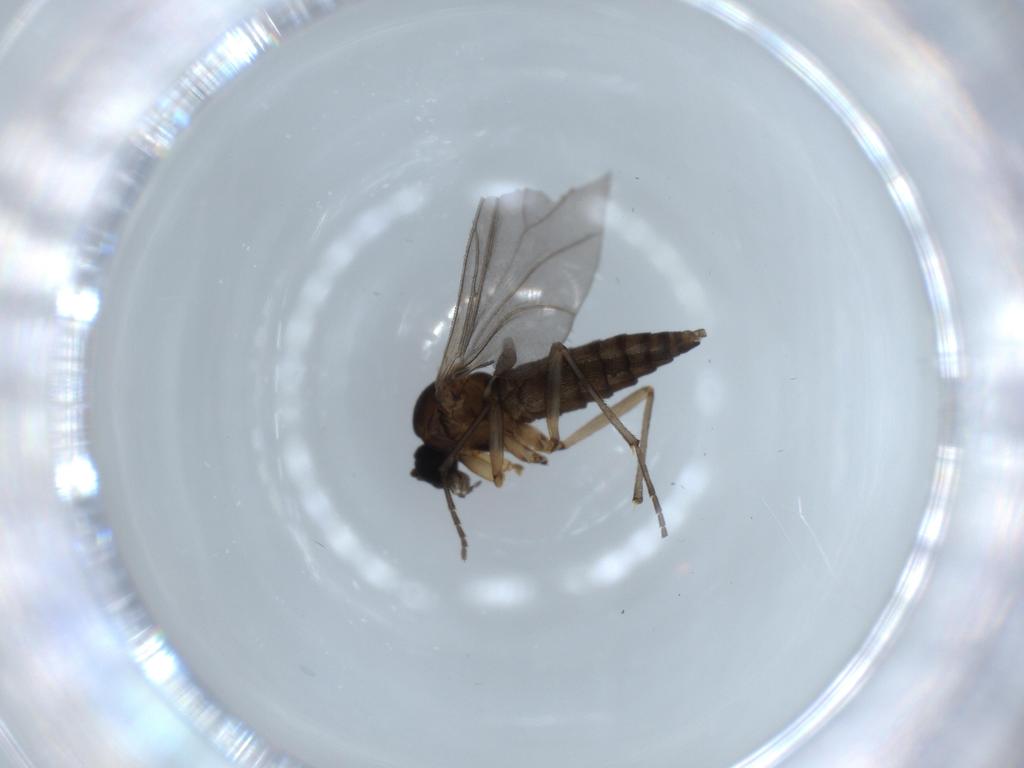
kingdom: Animalia
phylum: Arthropoda
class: Insecta
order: Diptera
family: Sciaridae
